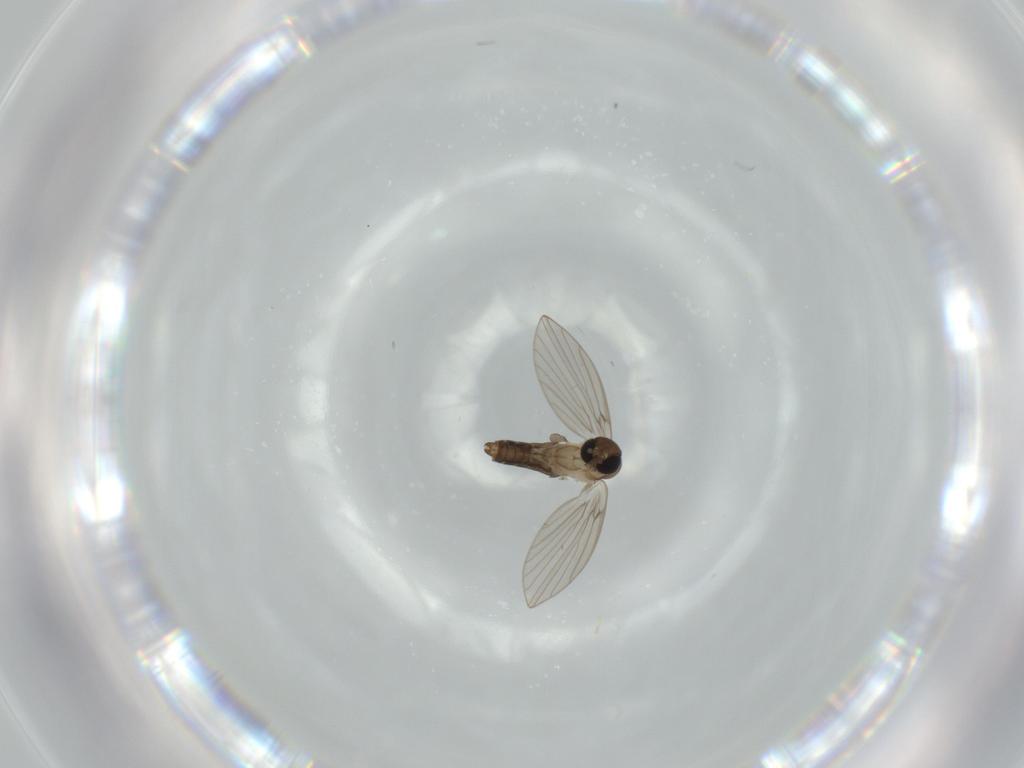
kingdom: Animalia
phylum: Arthropoda
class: Insecta
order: Diptera
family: Psychodidae
